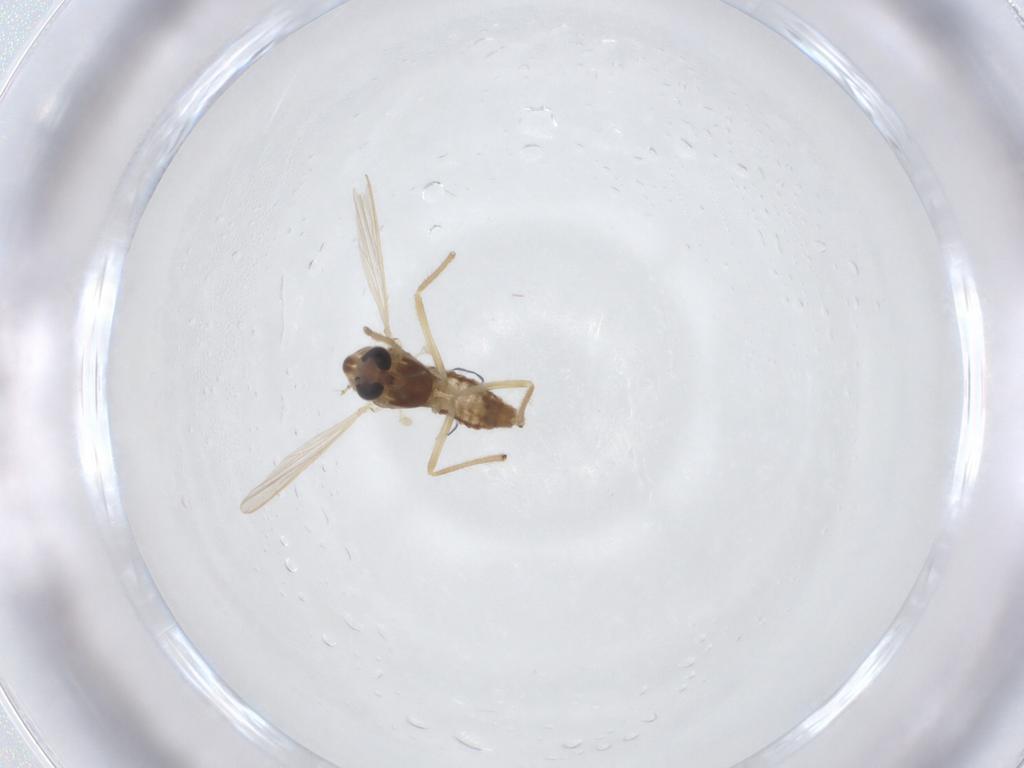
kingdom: Animalia
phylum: Arthropoda
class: Insecta
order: Diptera
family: Chironomidae
